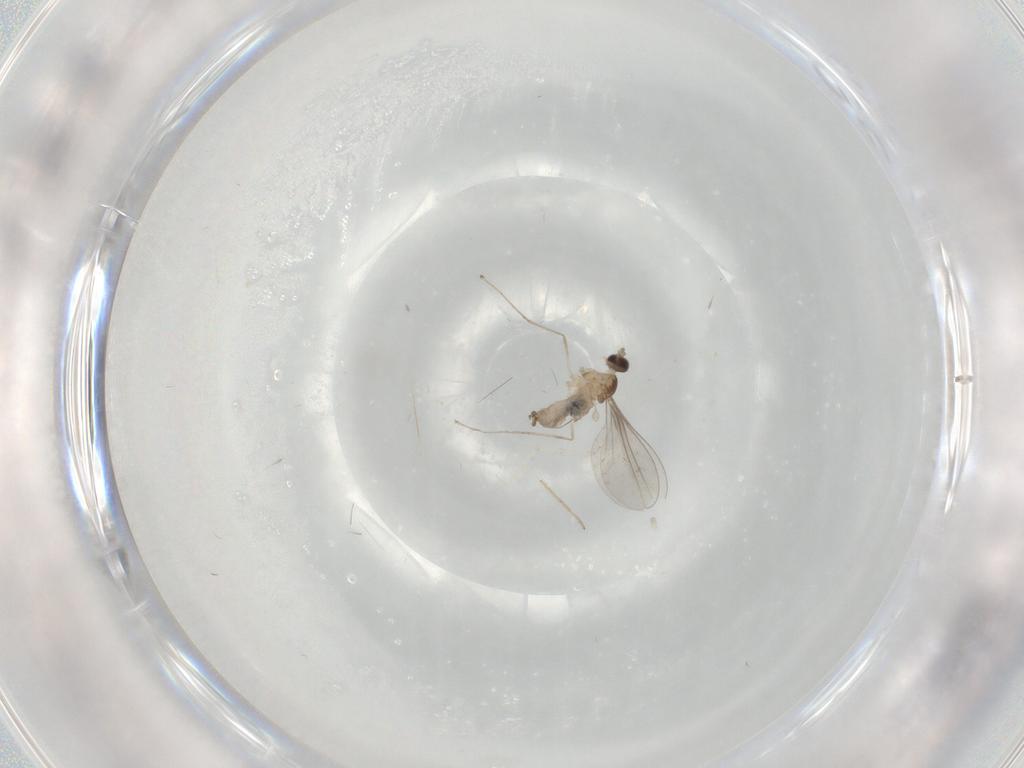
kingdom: Animalia
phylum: Arthropoda
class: Insecta
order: Diptera
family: Cecidomyiidae
